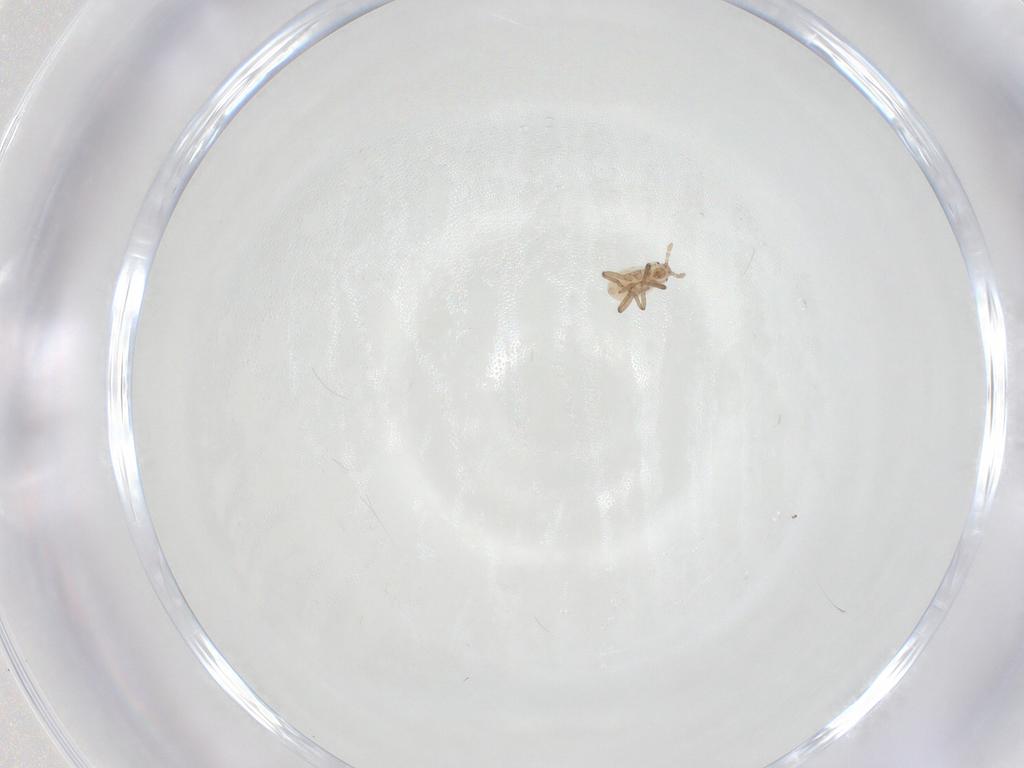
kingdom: Animalia
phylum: Arthropoda
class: Insecta
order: Hemiptera
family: Aphididae
